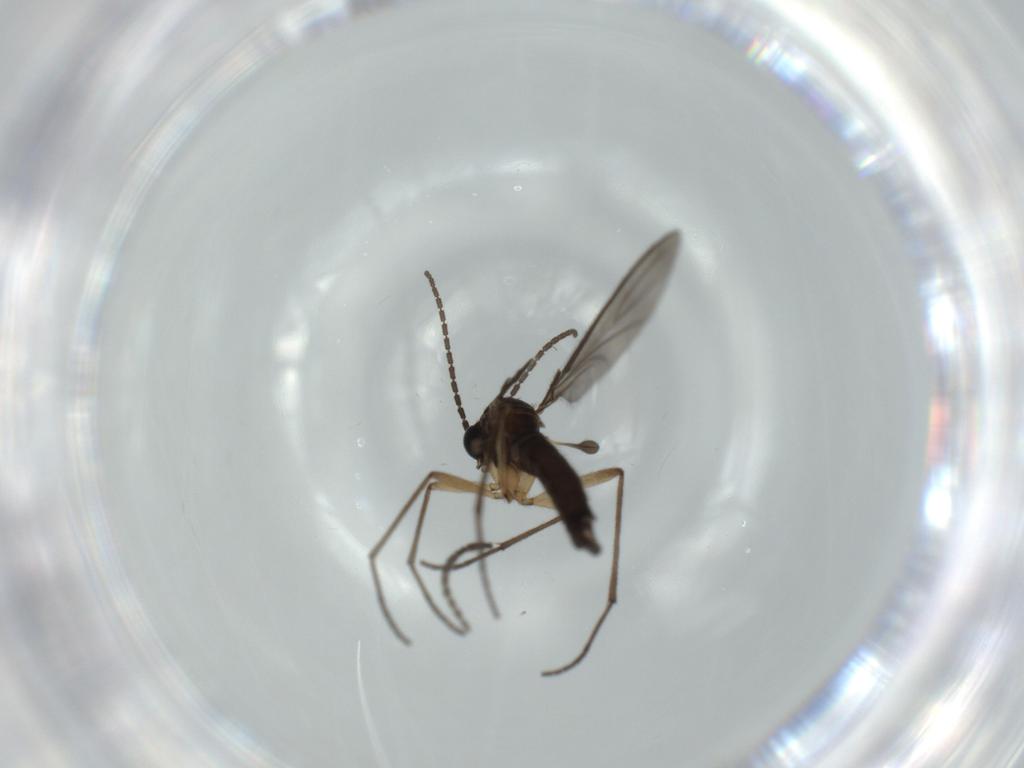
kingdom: Animalia
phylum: Arthropoda
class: Insecta
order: Diptera
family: Sciaridae
